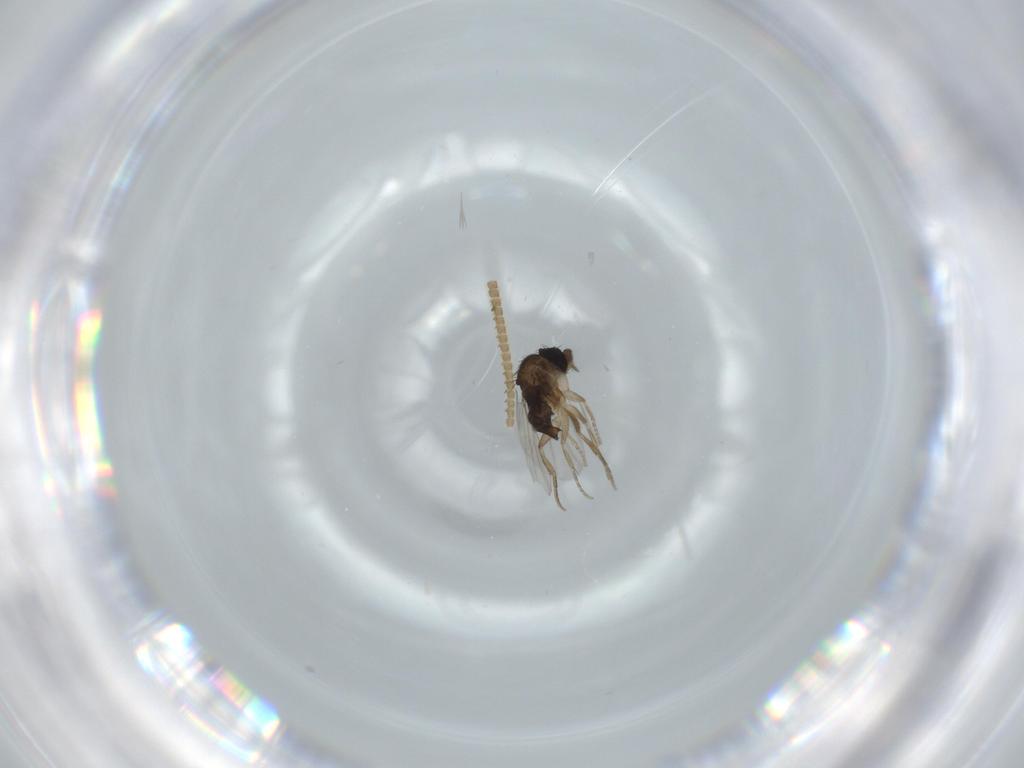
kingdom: Animalia
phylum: Arthropoda
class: Insecta
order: Diptera
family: Phoridae
